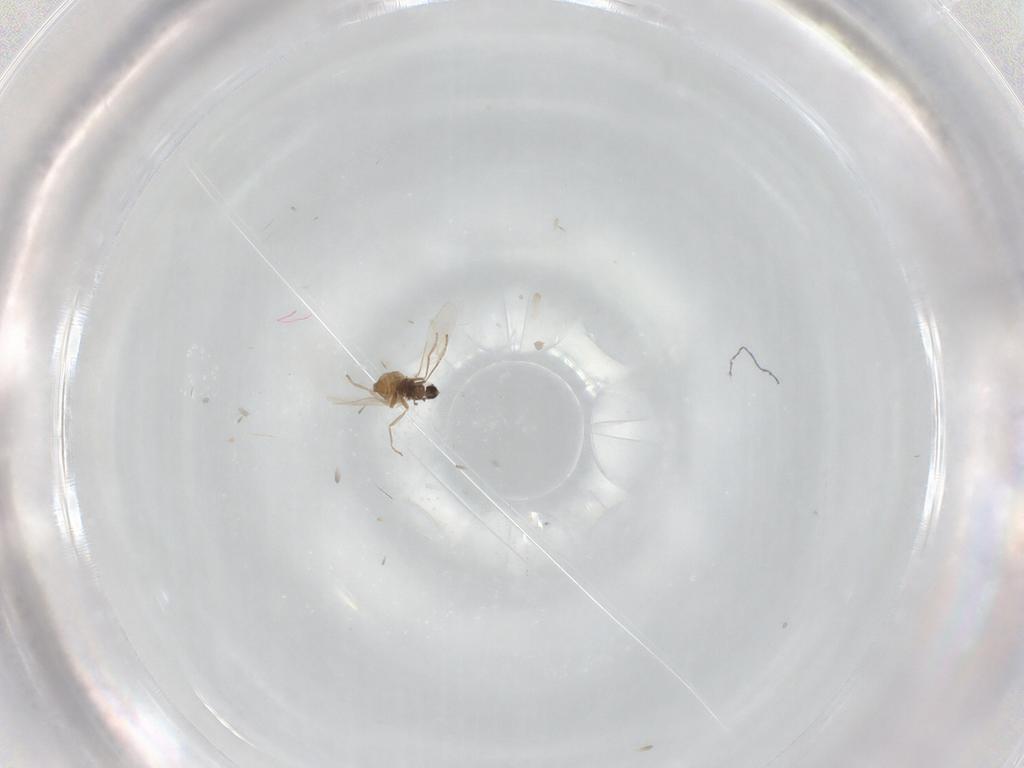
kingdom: Animalia
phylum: Arthropoda
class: Insecta
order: Diptera
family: Cecidomyiidae
